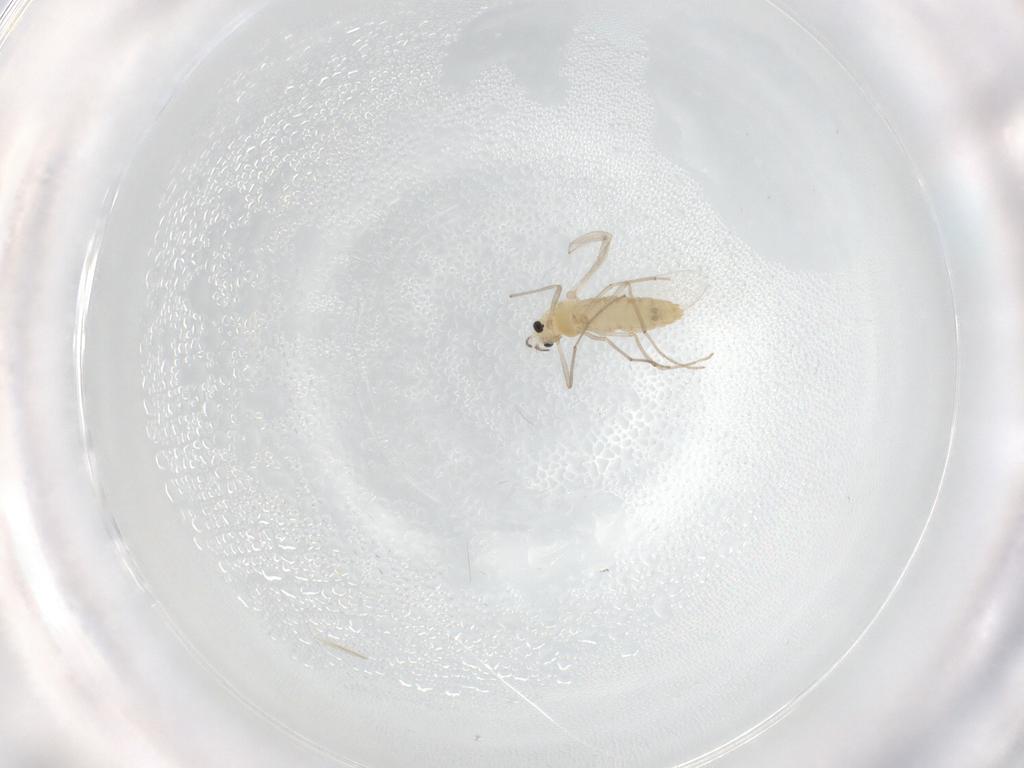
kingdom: Animalia
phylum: Arthropoda
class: Insecta
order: Diptera
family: Chironomidae
